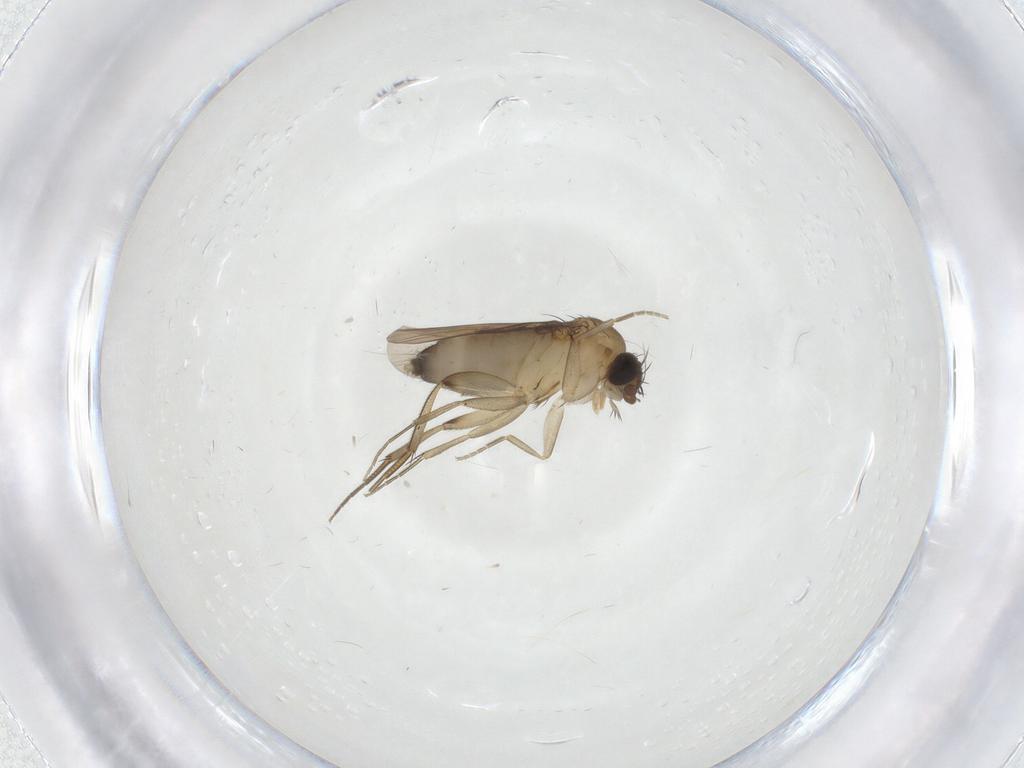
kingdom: Animalia
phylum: Arthropoda
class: Insecta
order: Diptera
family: Phoridae
